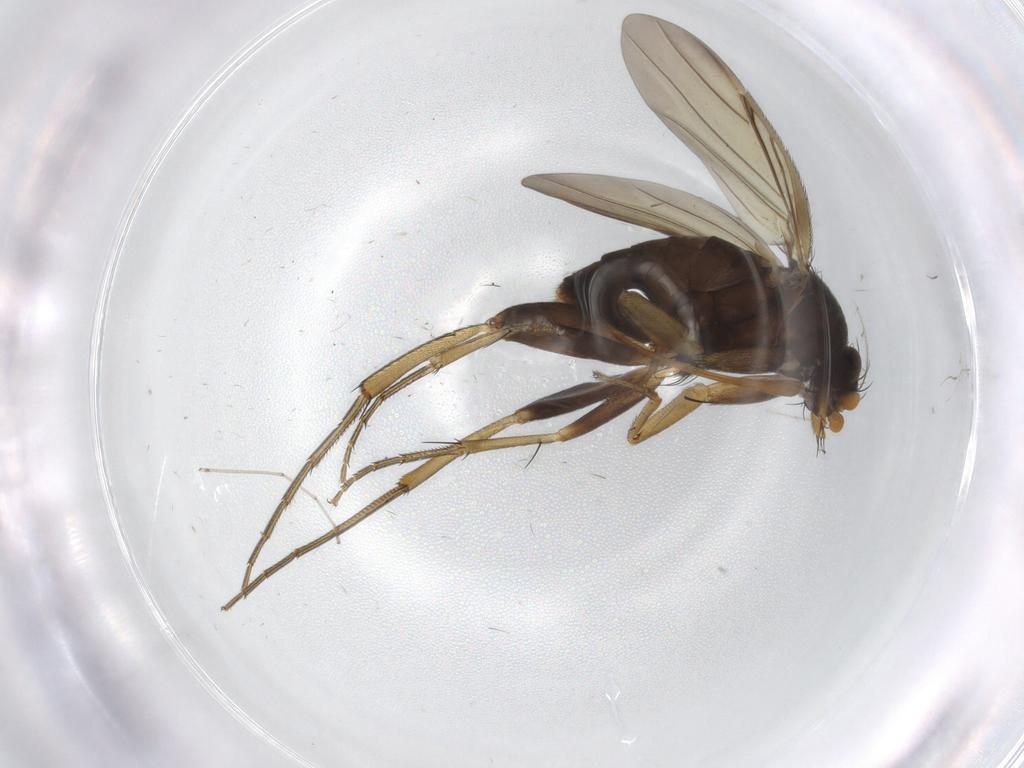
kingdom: Animalia
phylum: Arthropoda
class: Insecta
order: Diptera
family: Phoridae
